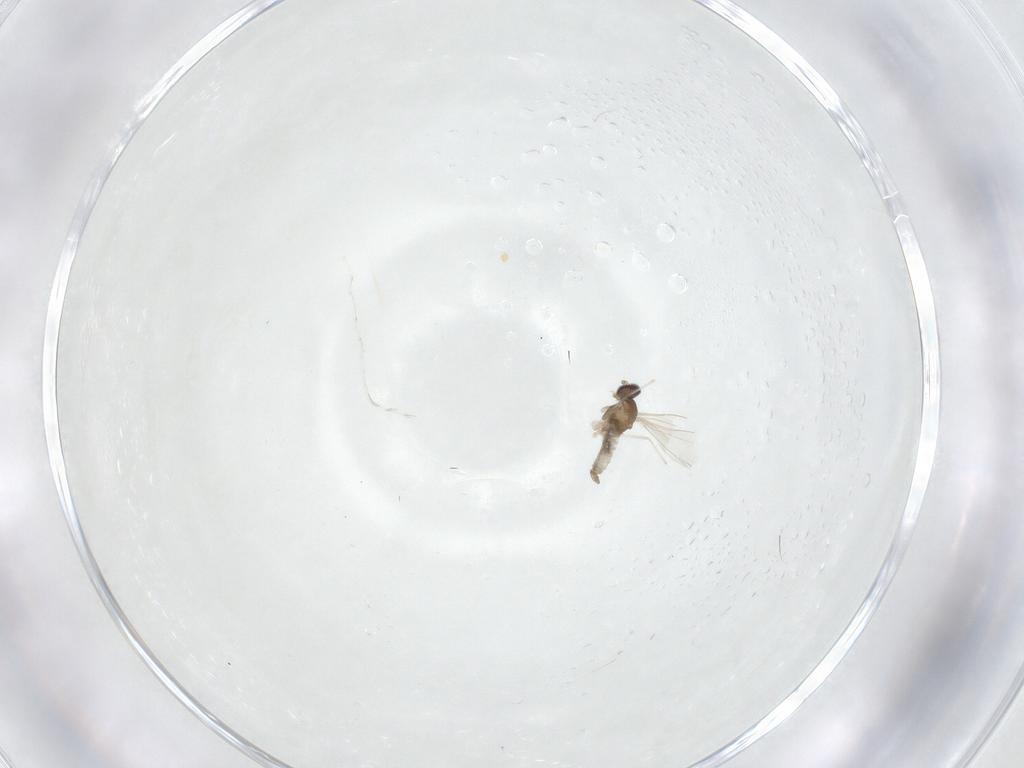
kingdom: Animalia
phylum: Arthropoda
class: Insecta
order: Diptera
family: Cecidomyiidae
